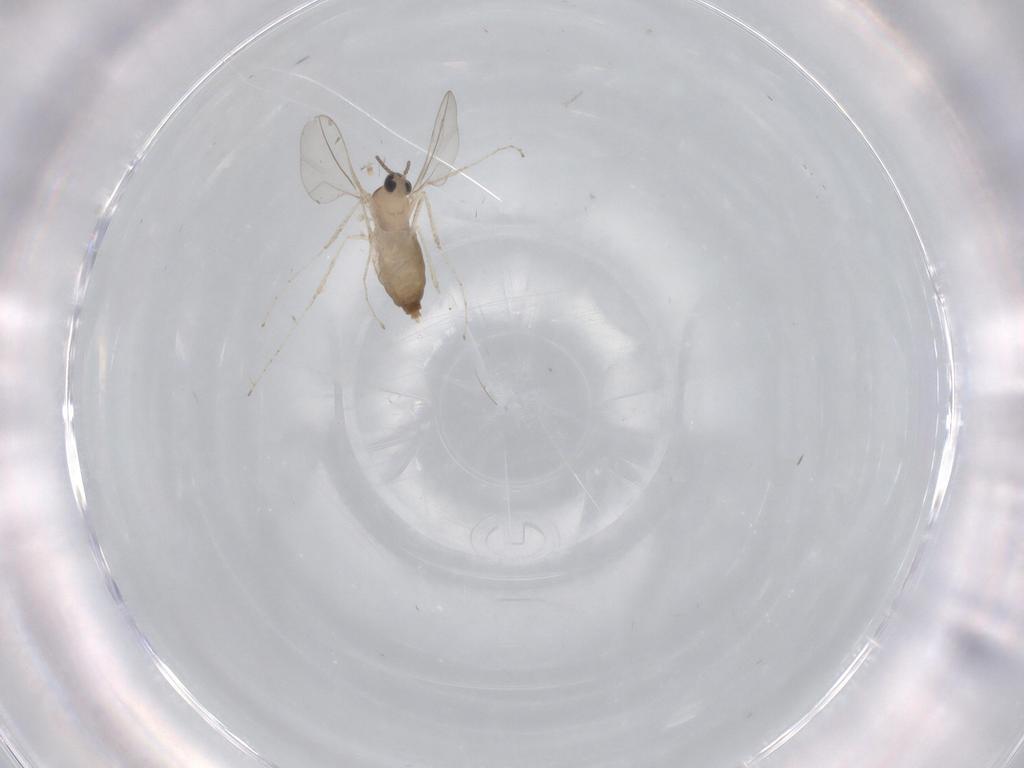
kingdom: Animalia
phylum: Arthropoda
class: Insecta
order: Diptera
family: Cecidomyiidae
